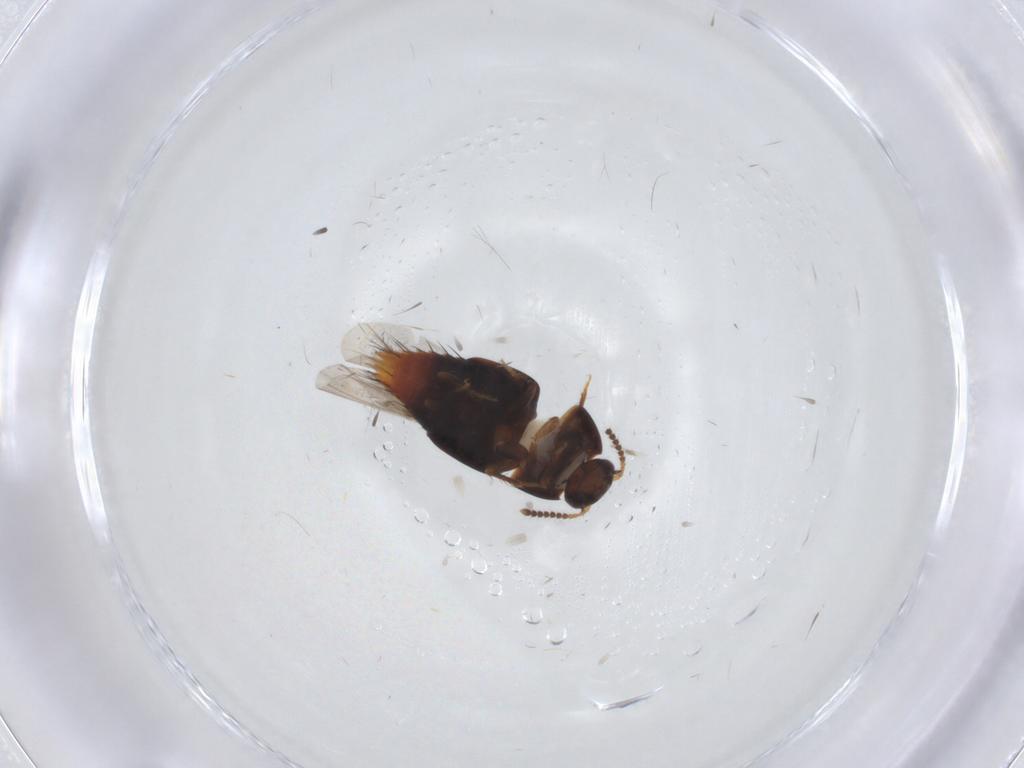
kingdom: Animalia
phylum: Arthropoda
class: Insecta
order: Coleoptera
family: Staphylinidae
